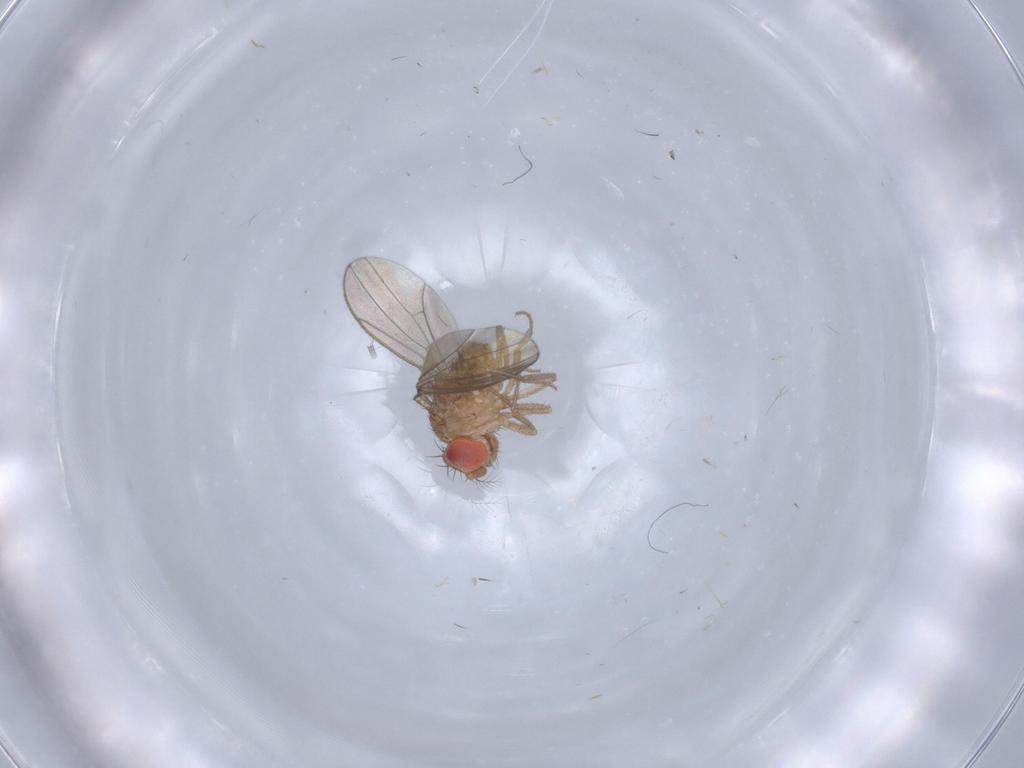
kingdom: Animalia
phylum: Arthropoda
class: Insecta
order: Diptera
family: Drosophilidae
